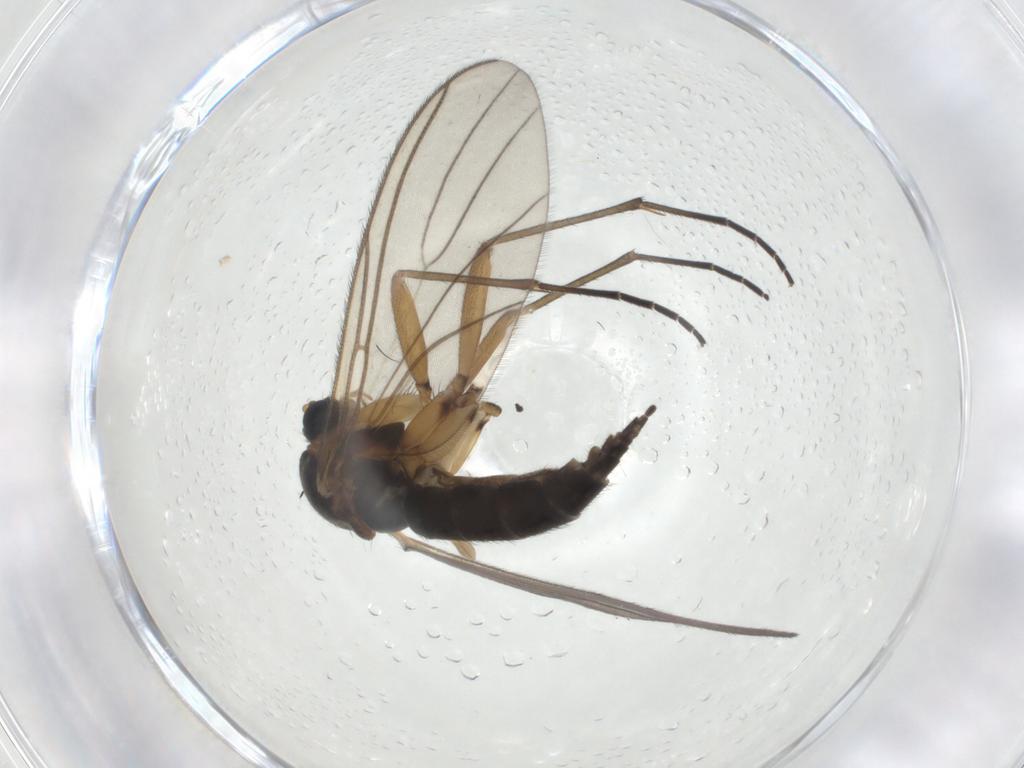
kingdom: Animalia
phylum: Arthropoda
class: Insecta
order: Diptera
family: Sciaridae
